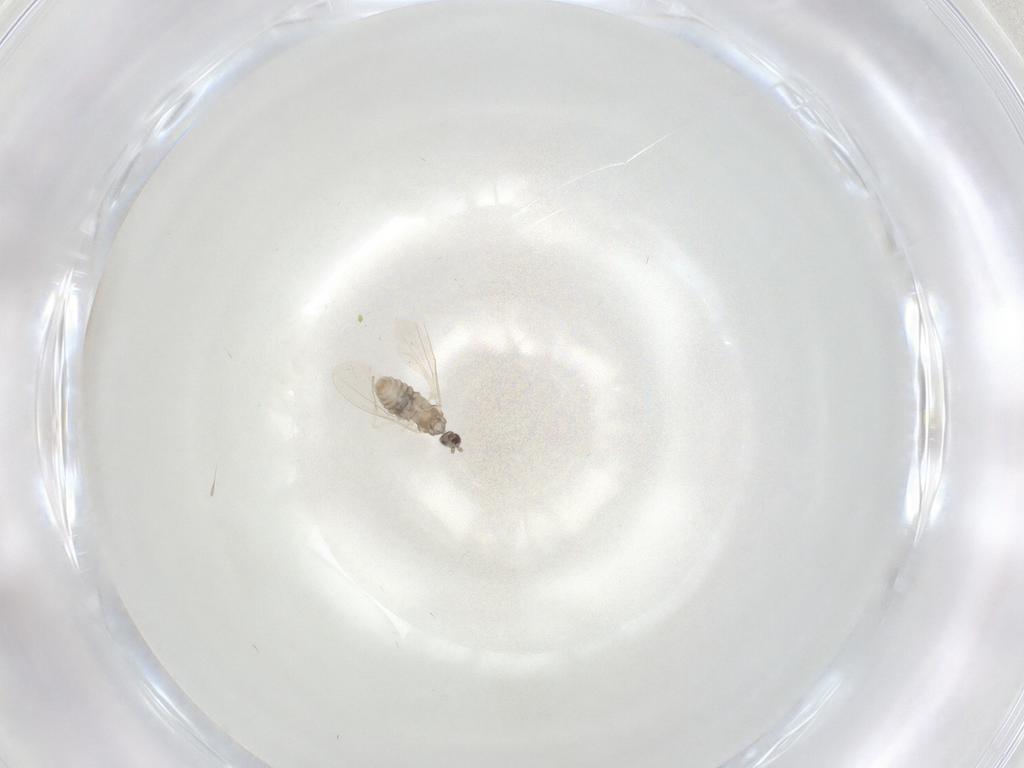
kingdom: Animalia
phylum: Arthropoda
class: Insecta
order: Diptera
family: Cecidomyiidae
